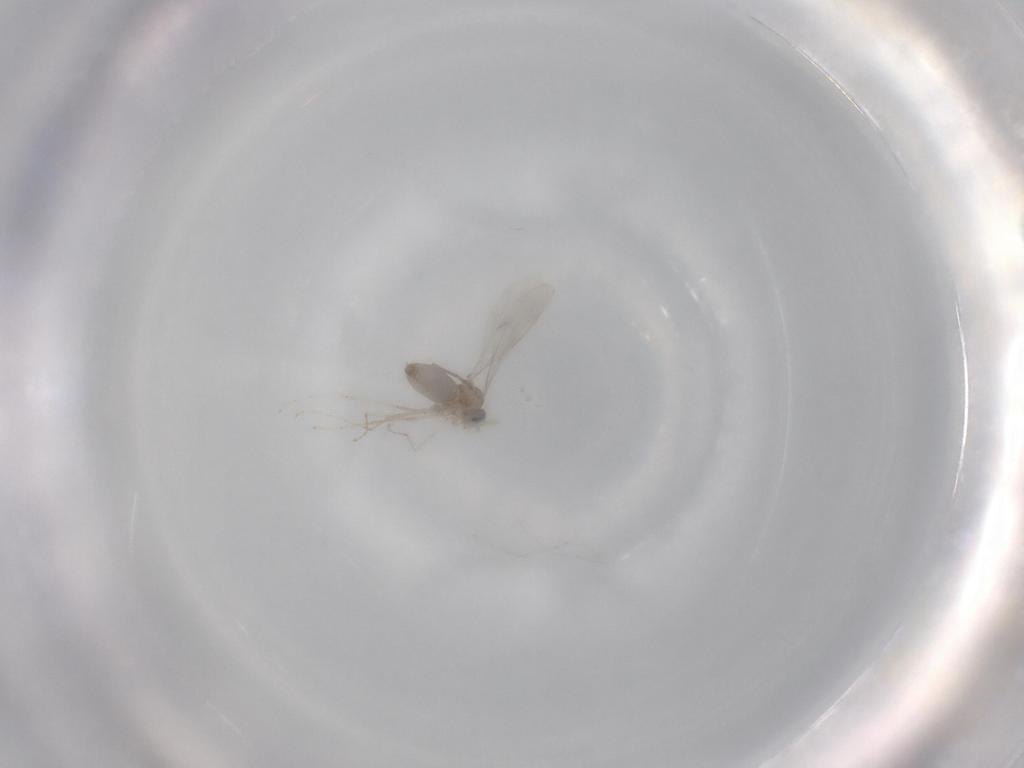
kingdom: Animalia
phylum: Arthropoda
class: Insecta
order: Diptera
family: Cecidomyiidae
